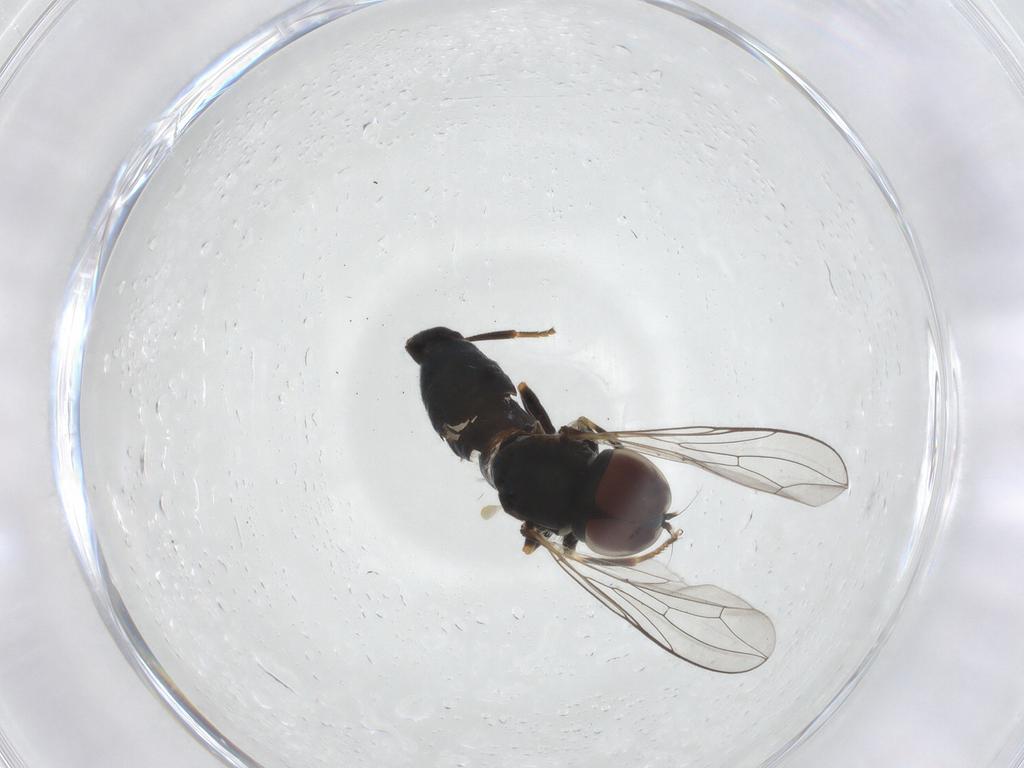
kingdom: Animalia
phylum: Arthropoda
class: Insecta
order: Diptera
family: Pipunculidae
